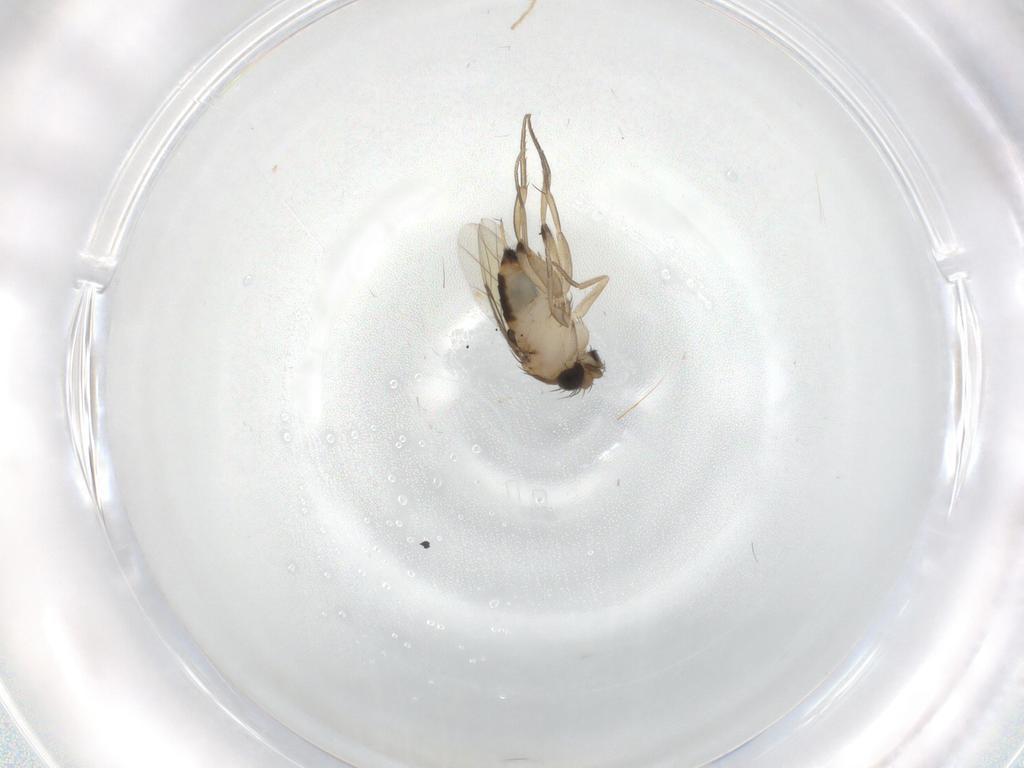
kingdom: Animalia
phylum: Arthropoda
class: Insecta
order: Diptera
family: Phoridae
